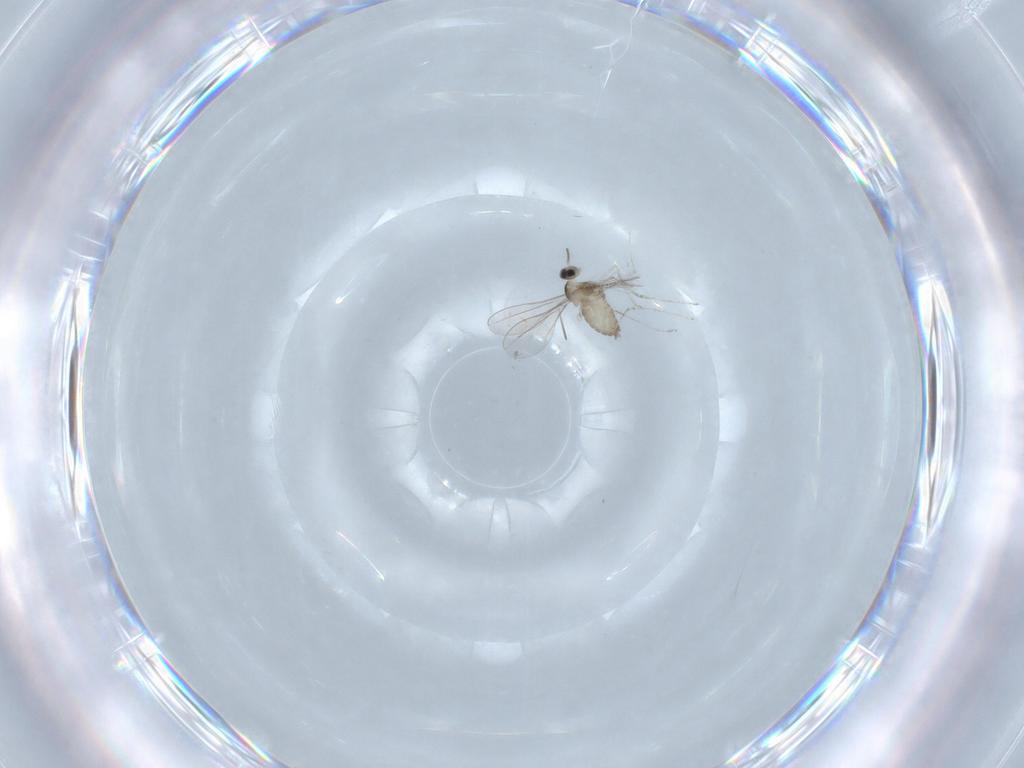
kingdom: Animalia
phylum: Arthropoda
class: Insecta
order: Diptera
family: Cecidomyiidae
